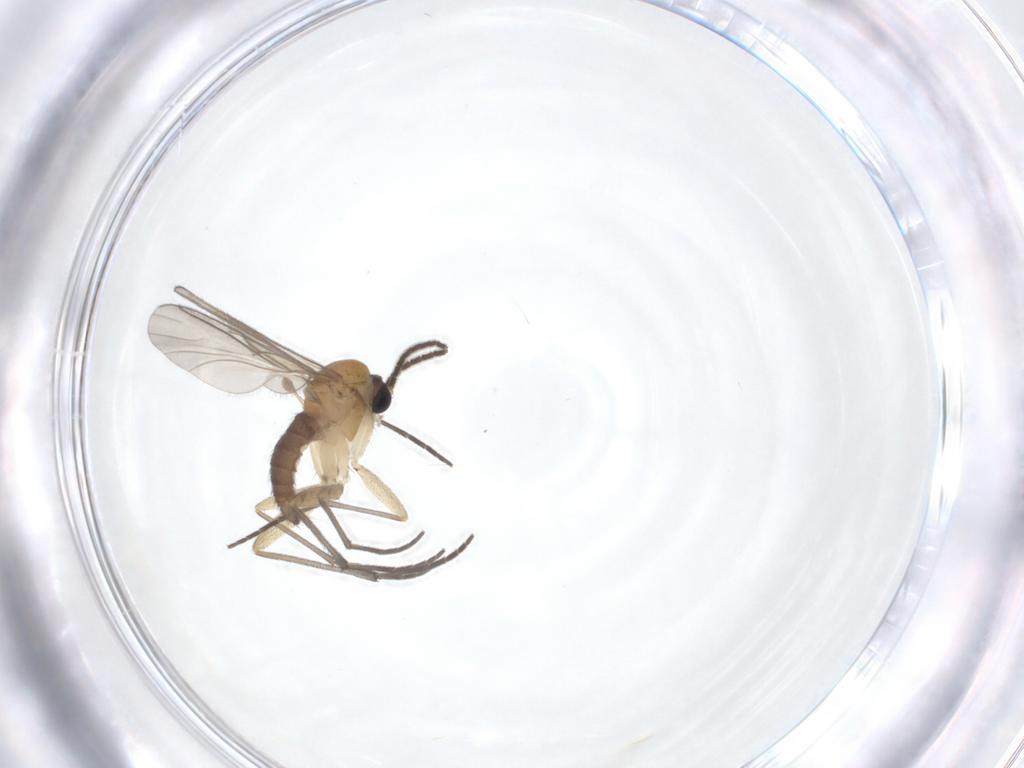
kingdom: Animalia
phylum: Arthropoda
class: Insecta
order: Diptera
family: Sciaridae
